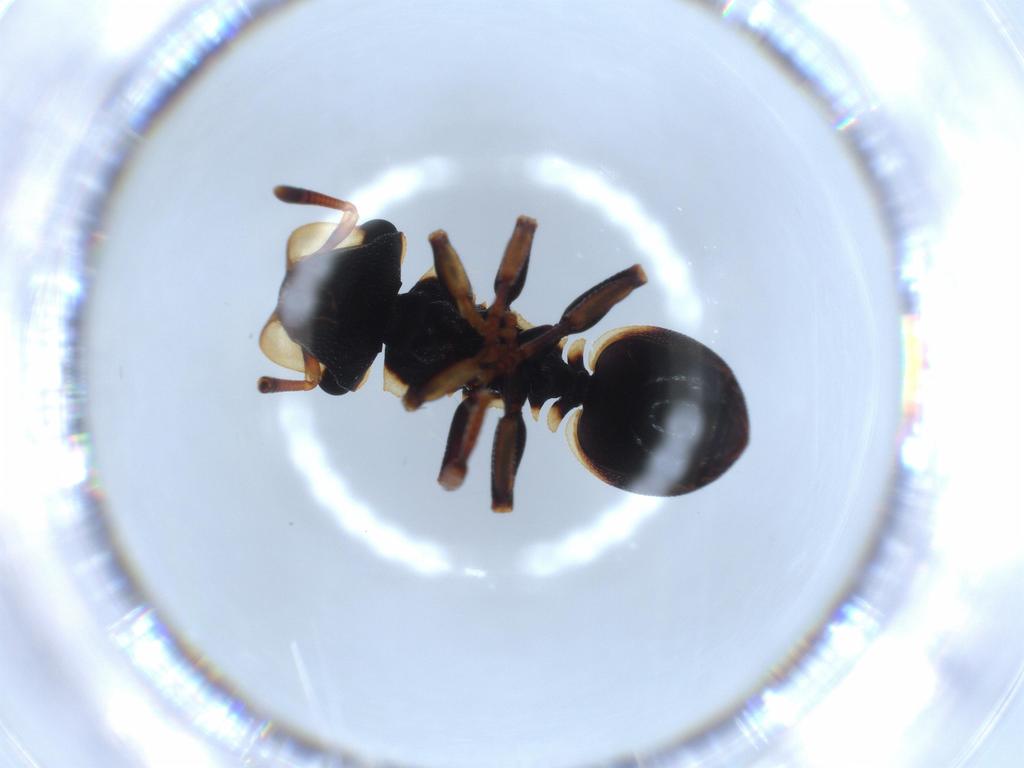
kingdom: Animalia
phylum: Arthropoda
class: Insecta
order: Hymenoptera
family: Formicidae
